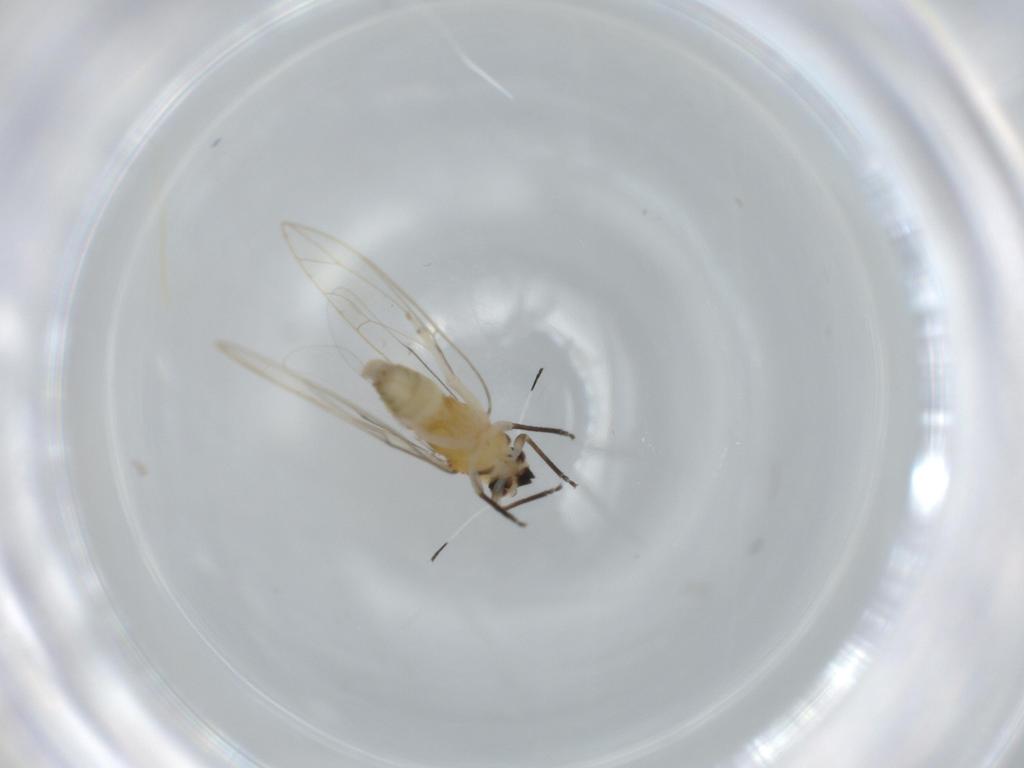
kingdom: Animalia
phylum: Arthropoda
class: Insecta
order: Hemiptera
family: Triozidae
